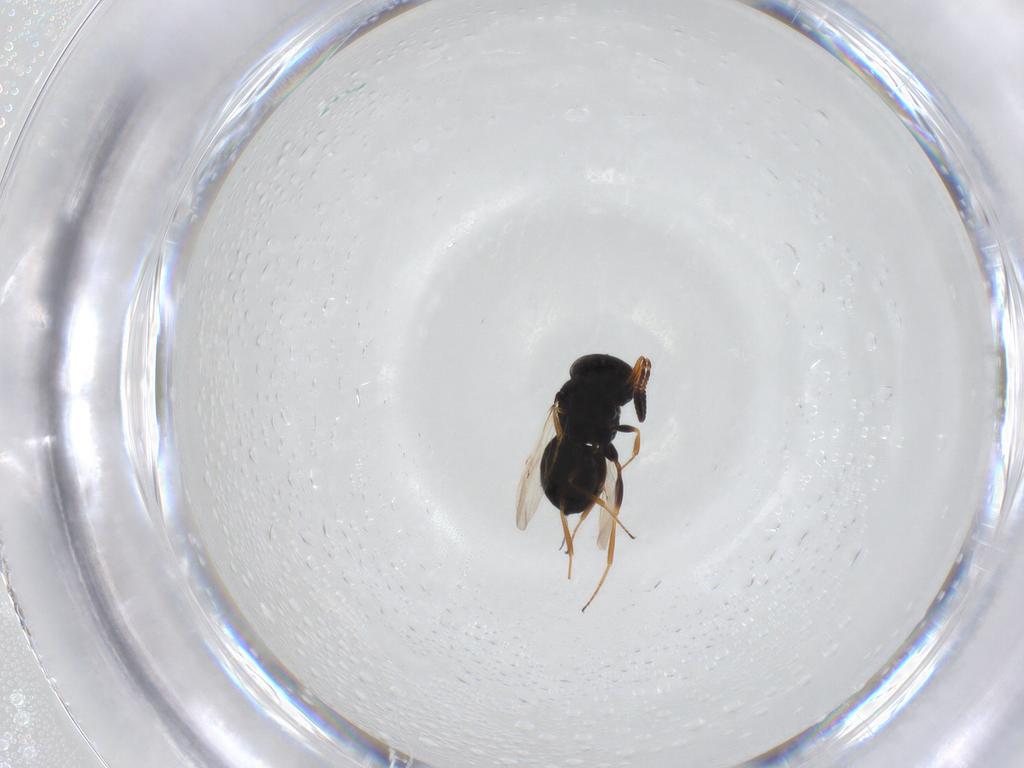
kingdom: Animalia
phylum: Arthropoda
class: Insecta
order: Hymenoptera
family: Scelionidae
